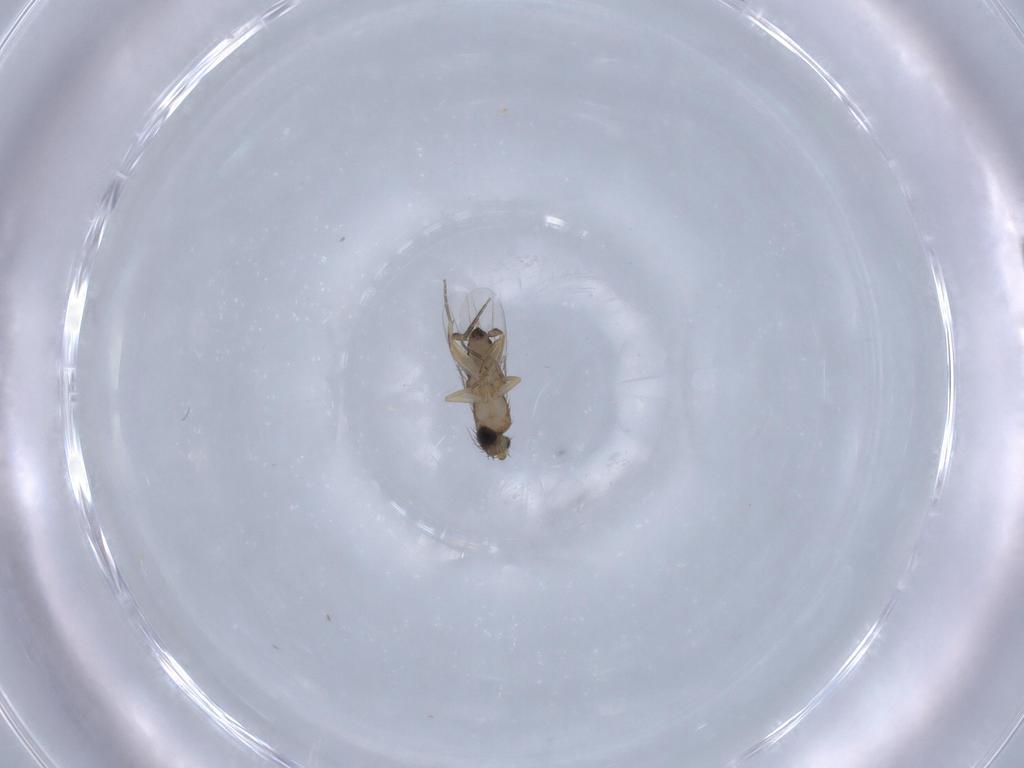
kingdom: Animalia
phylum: Arthropoda
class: Insecta
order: Diptera
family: Phoridae
